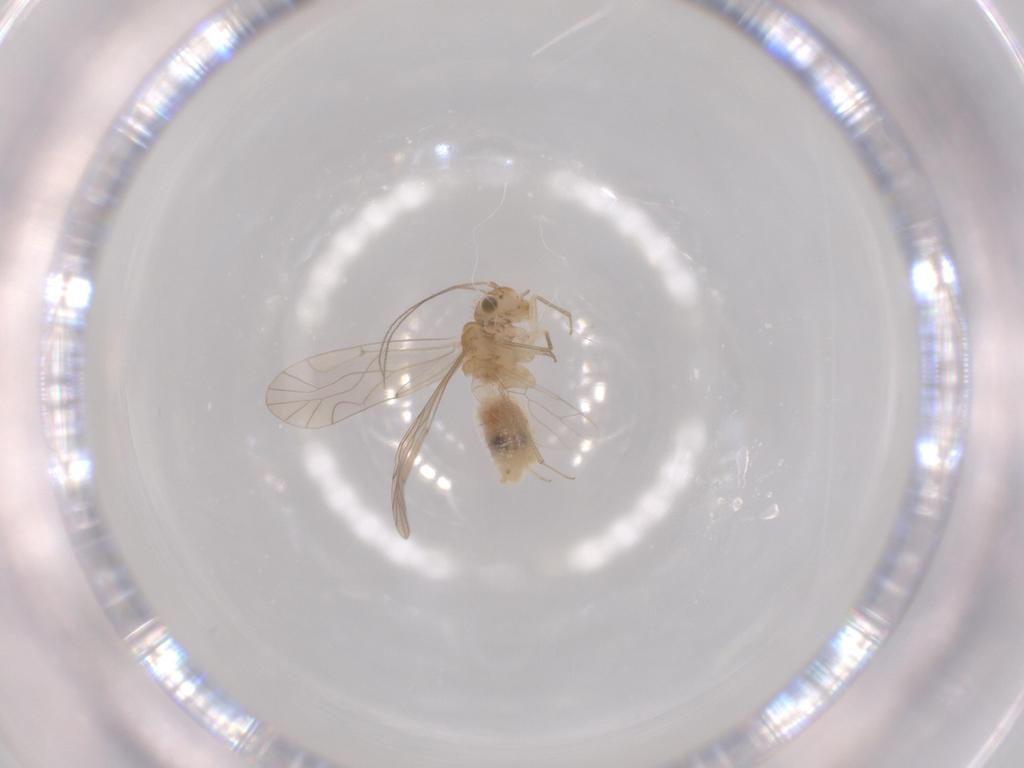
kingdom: Animalia
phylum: Arthropoda
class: Insecta
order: Psocodea
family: Lachesillidae
